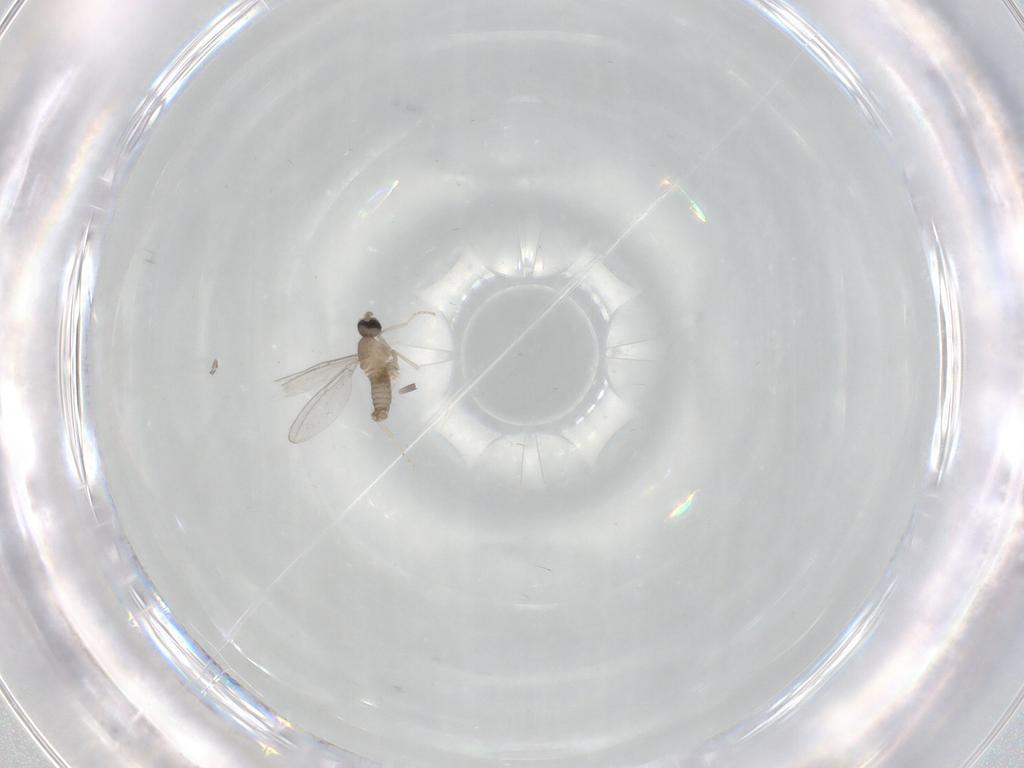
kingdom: Animalia
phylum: Arthropoda
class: Insecta
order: Diptera
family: Cecidomyiidae
